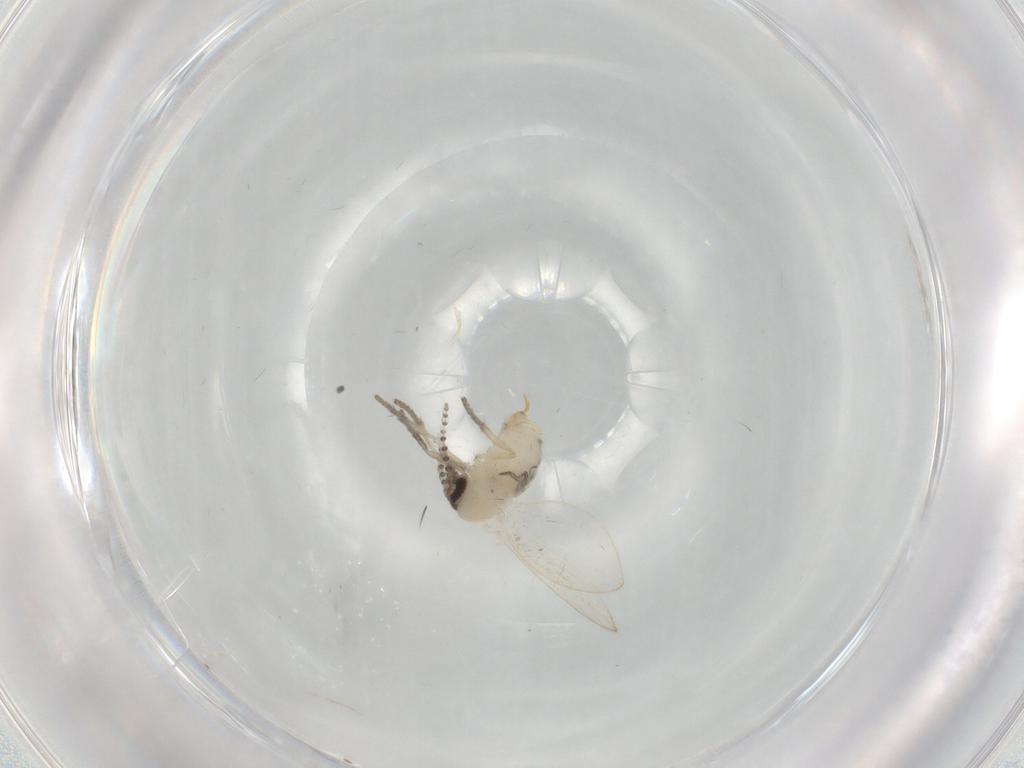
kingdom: Animalia
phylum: Arthropoda
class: Insecta
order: Diptera
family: Psychodidae
